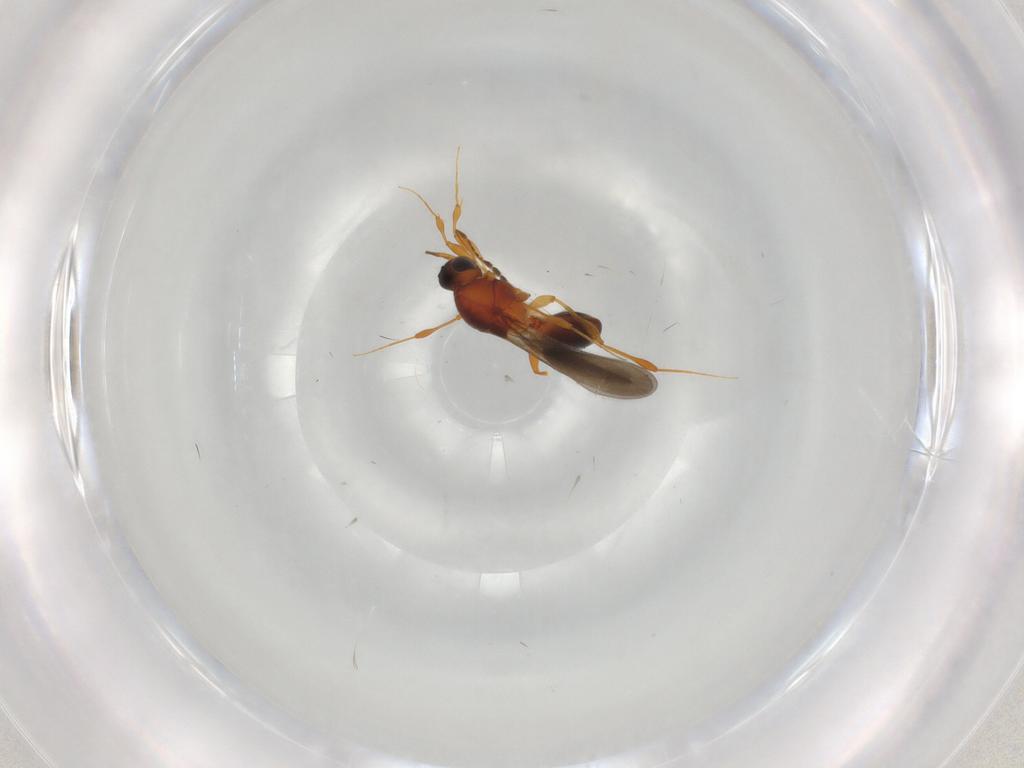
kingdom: Animalia
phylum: Arthropoda
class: Insecta
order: Hymenoptera
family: Platygastridae
